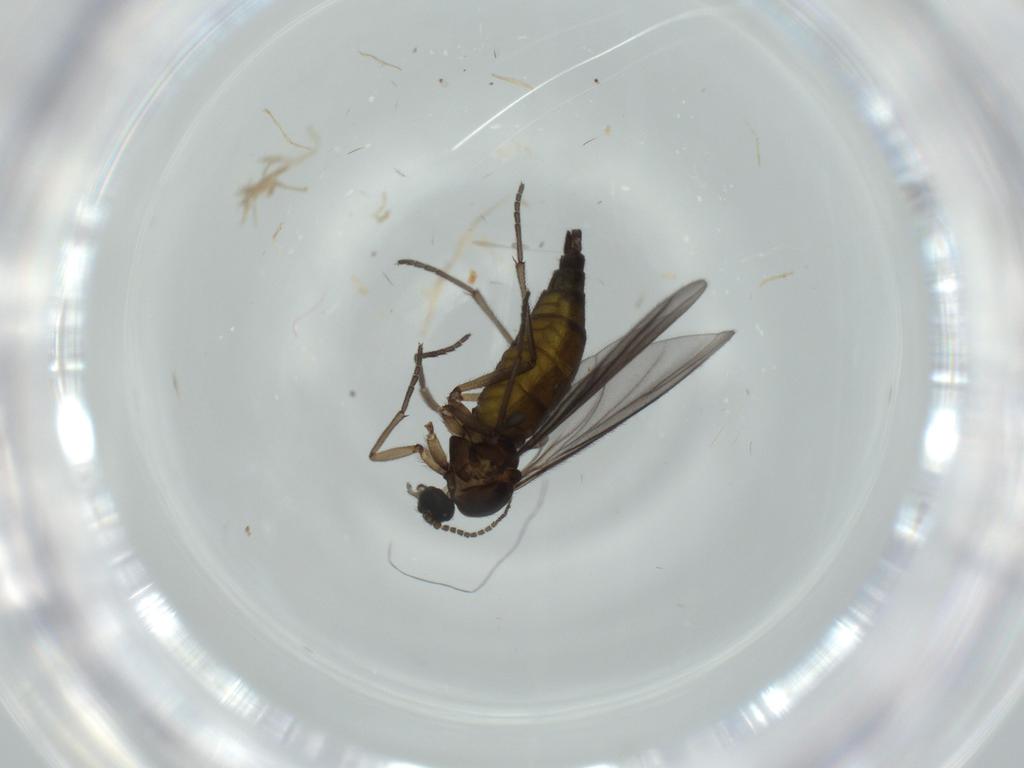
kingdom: Animalia
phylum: Arthropoda
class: Insecta
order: Diptera
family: Sciaridae
